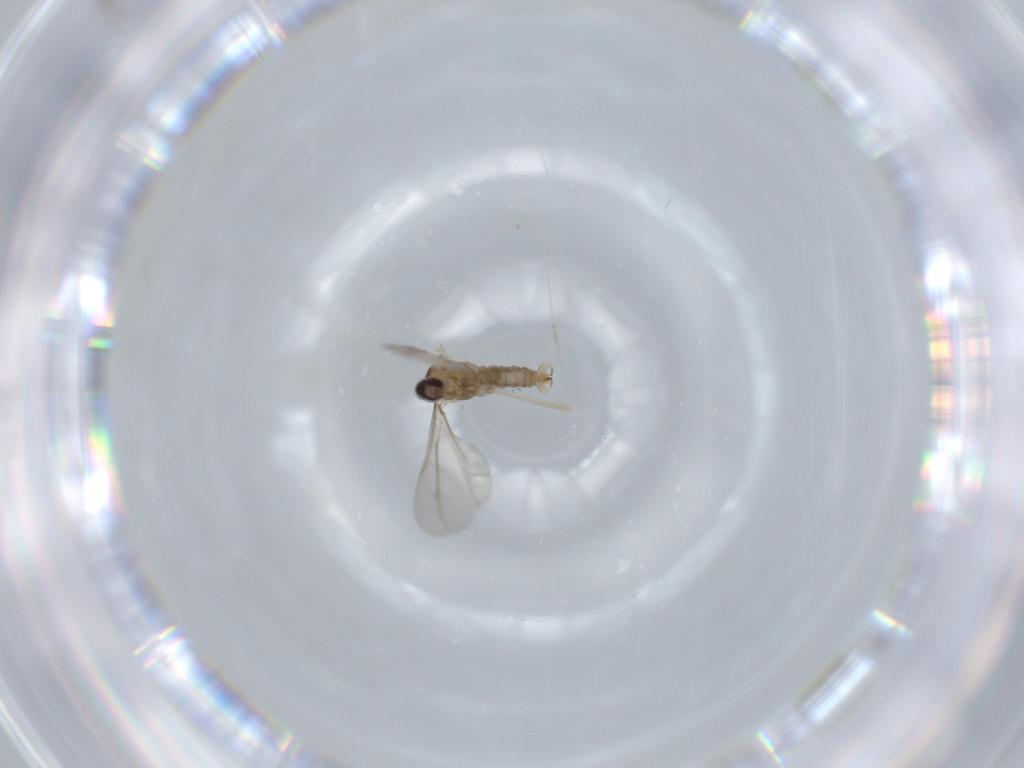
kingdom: Animalia
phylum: Arthropoda
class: Insecta
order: Diptera
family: Cecidomyiidae
